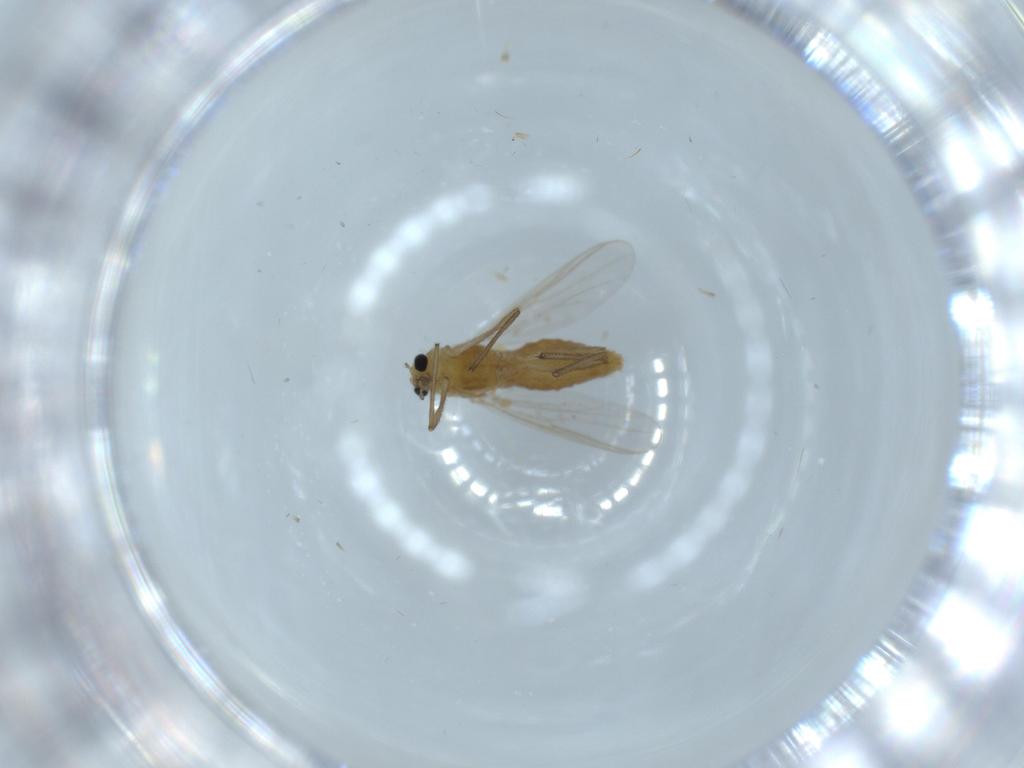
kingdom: Animalia
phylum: Arthropoda
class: Insecta
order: Diptera
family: Chironomidae
